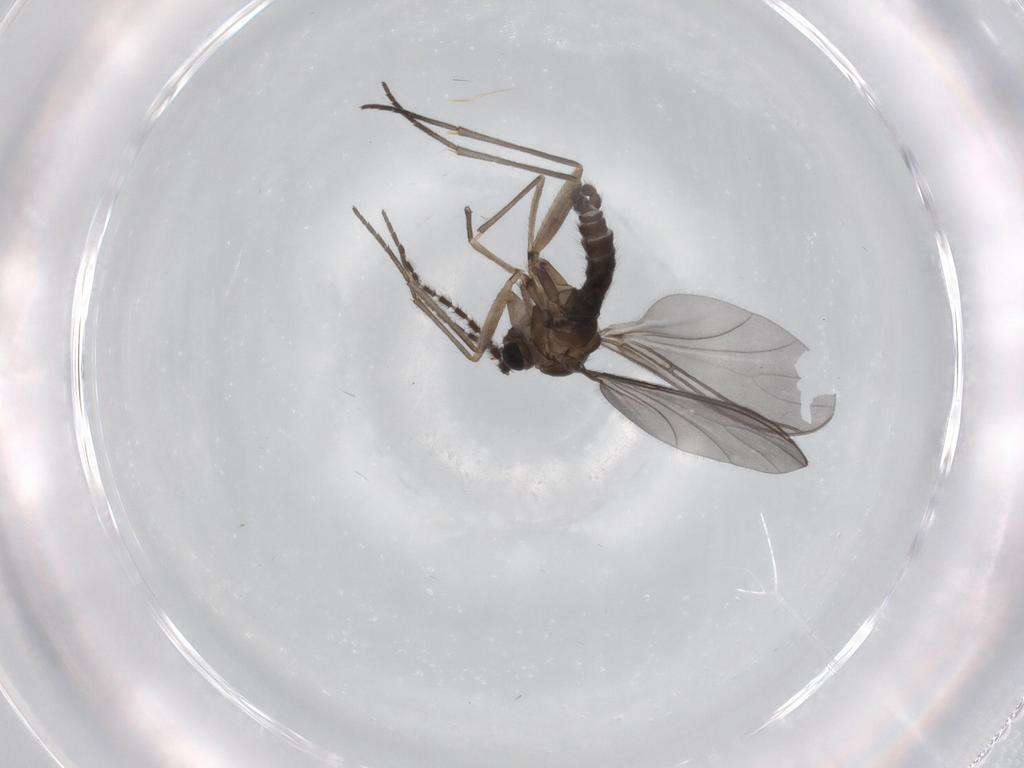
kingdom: Animalia
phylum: Arthropoda
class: Insecta
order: Diptera
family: Sciaridae
